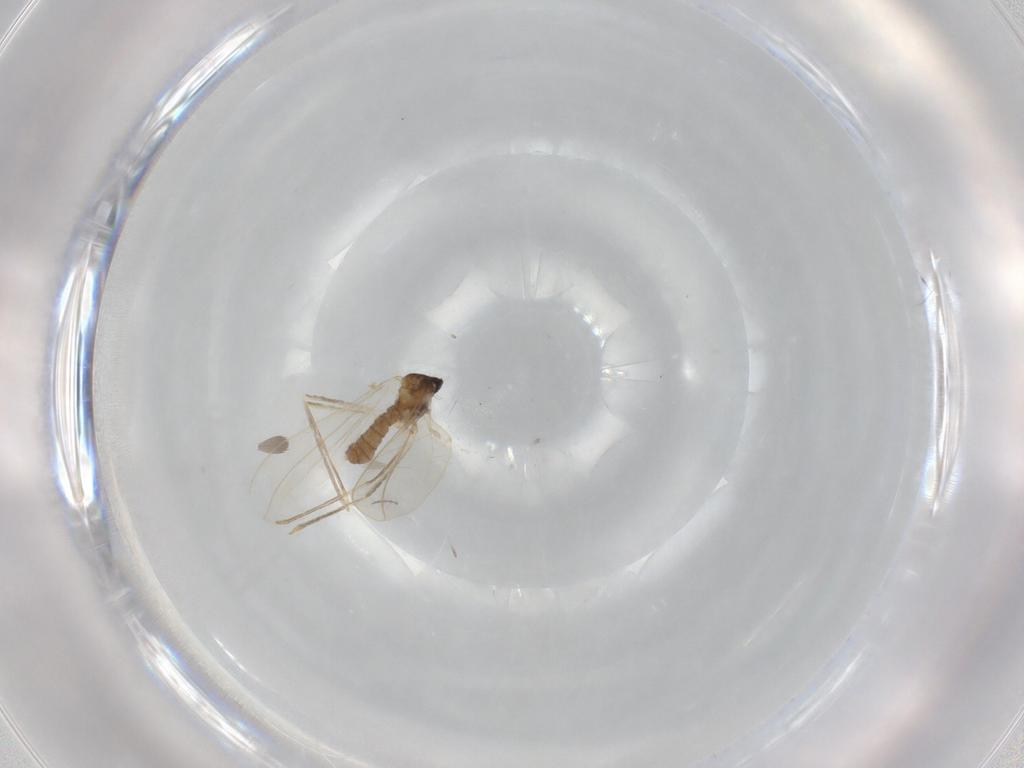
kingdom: Animalia
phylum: Arthropoda
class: Insecta
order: Diptera
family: Cecidomyiidae
